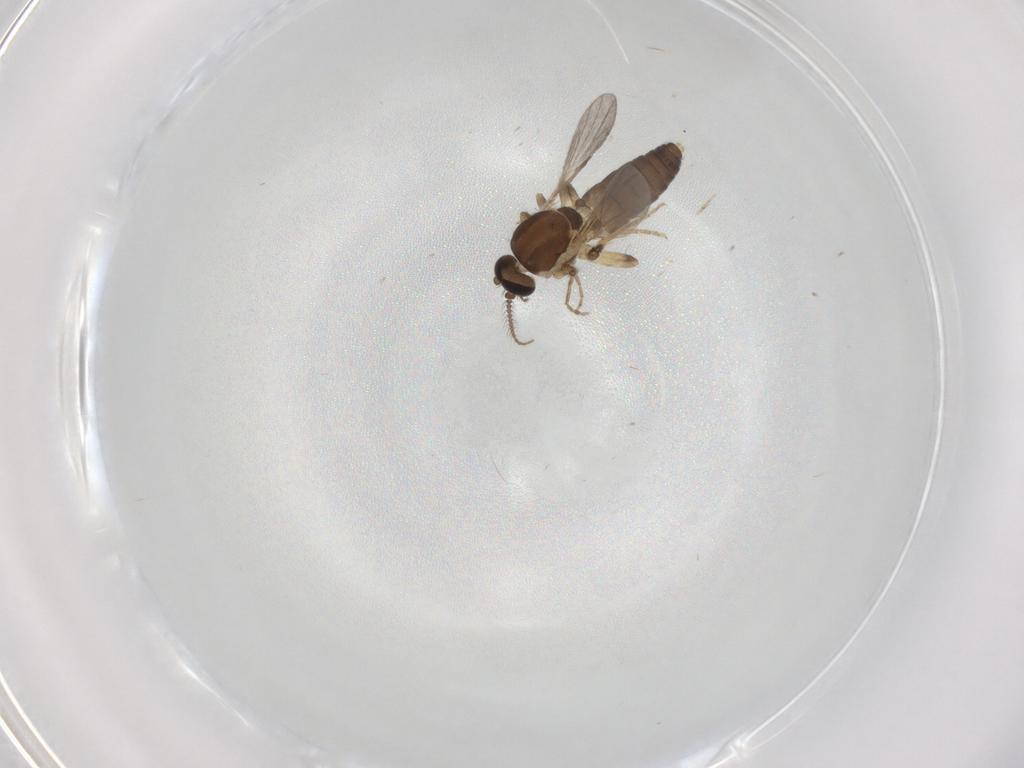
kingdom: Animalia
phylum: Arthropoda
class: Insecta
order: Diptera
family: Ceratopogonidae
